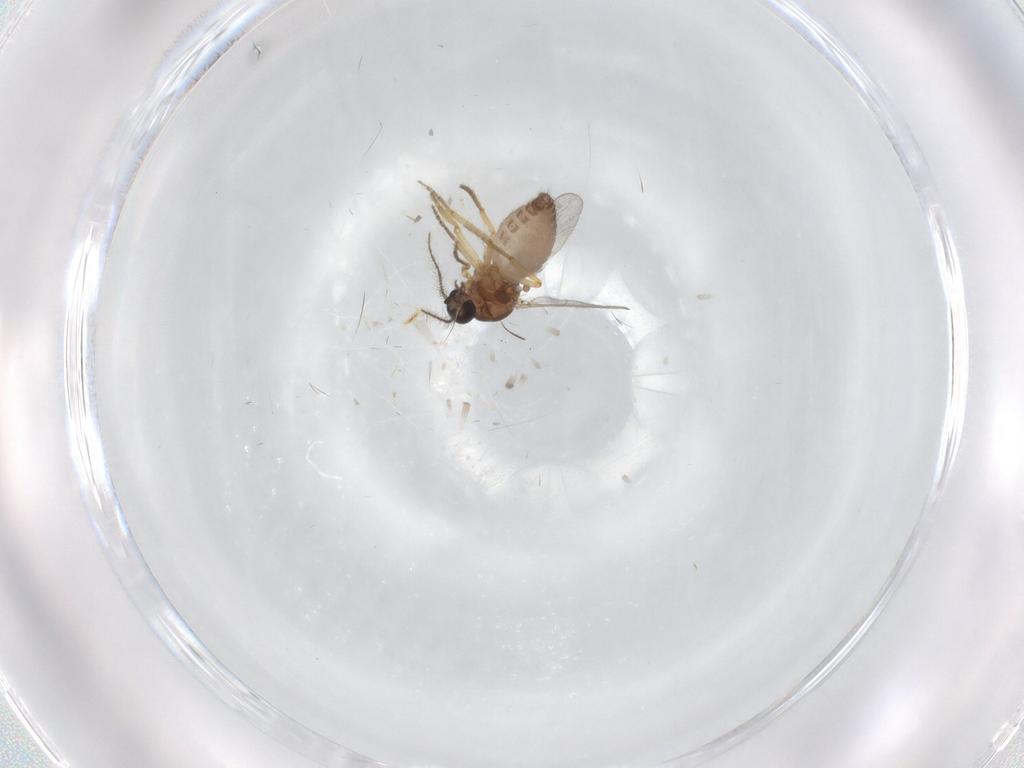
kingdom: Animalia
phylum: Arthropoda
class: Insecta
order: Diptera
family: Ceratopogonidae
